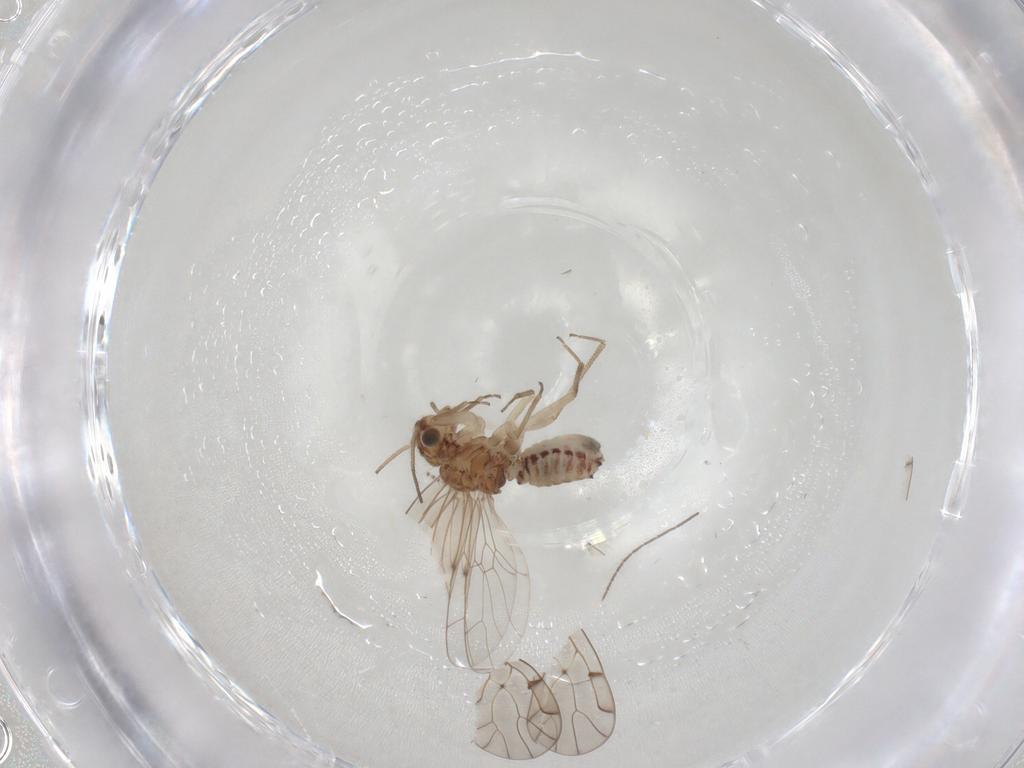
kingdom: Animalia
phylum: Arthropoda
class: Insecta
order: Diptera
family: Cecidomyiidae
